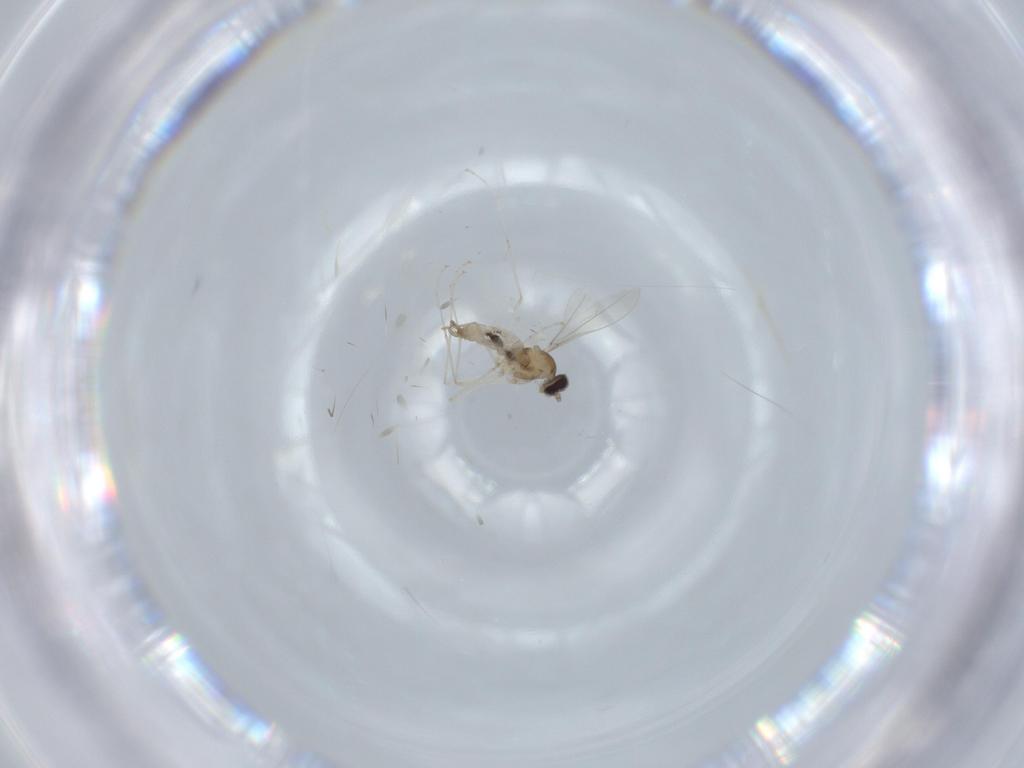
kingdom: Animalia
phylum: Arthropoda
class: Insecta
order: Diptera
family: Cecidomyiidae
